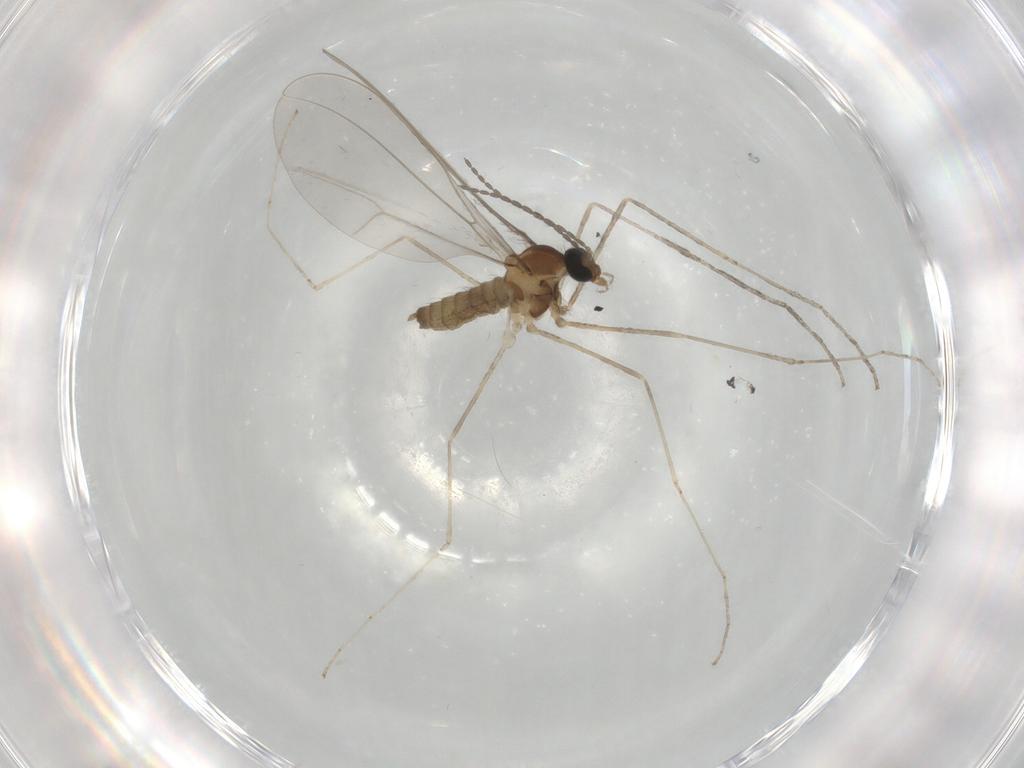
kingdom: Animalia
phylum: Arthropoda
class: Insecta
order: Diptera
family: Cecidomyiidae
